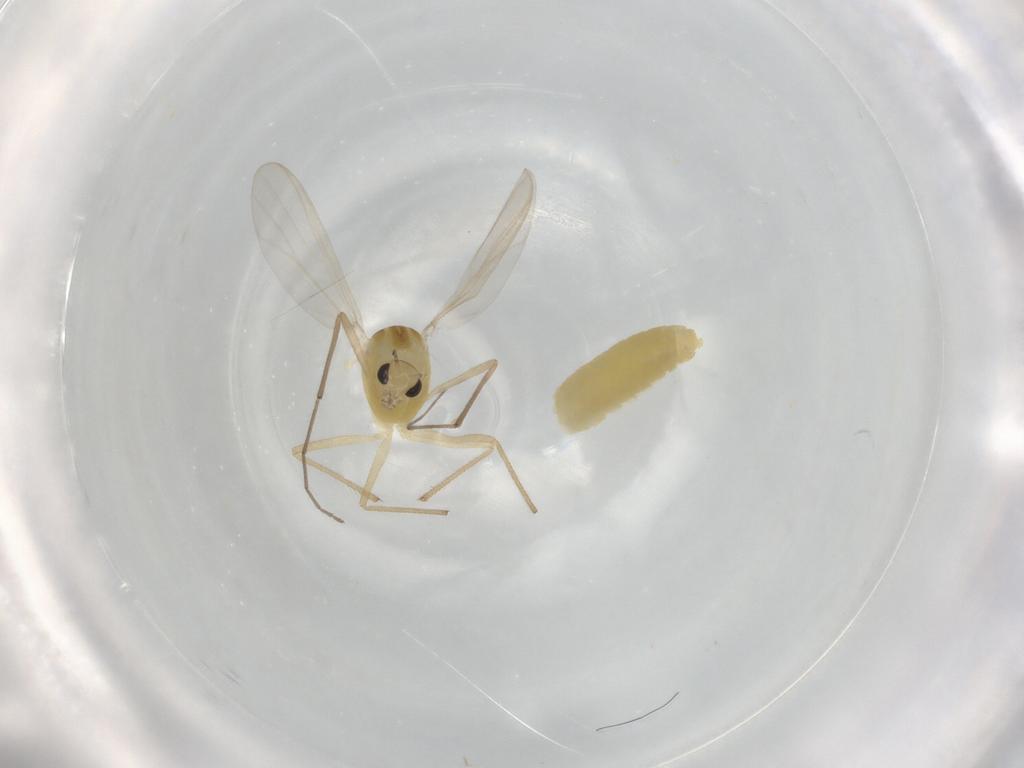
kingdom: Animalia
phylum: Arthropoda
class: Insecta
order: Diptera
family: Chironomidae
